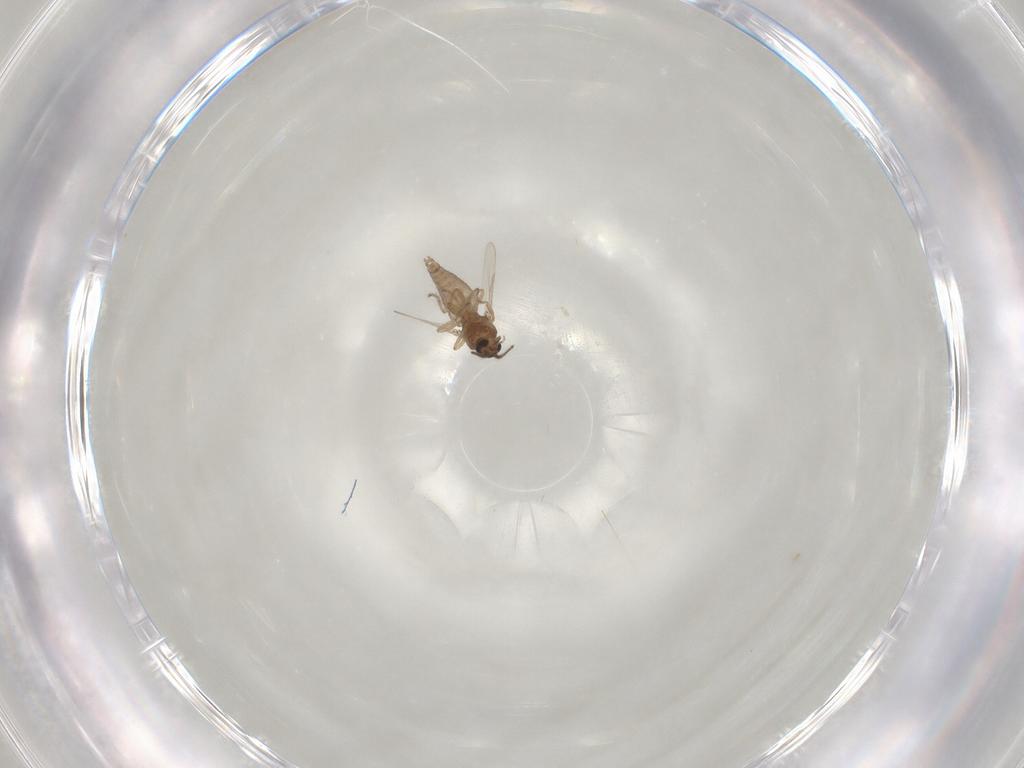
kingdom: Animalia
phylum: Arthropoda
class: Insecta
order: Diptera
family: Ceratopogonidae
